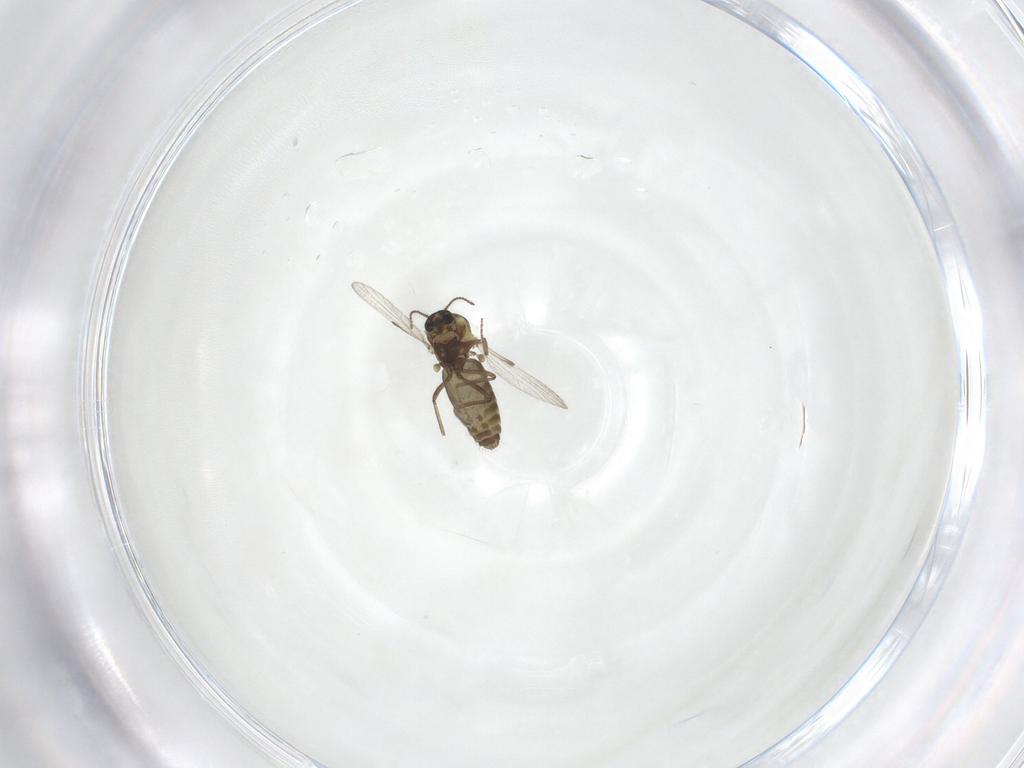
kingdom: Animalia
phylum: Arthropoda
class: Insecta
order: Diptera
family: Ceratopogonidae
